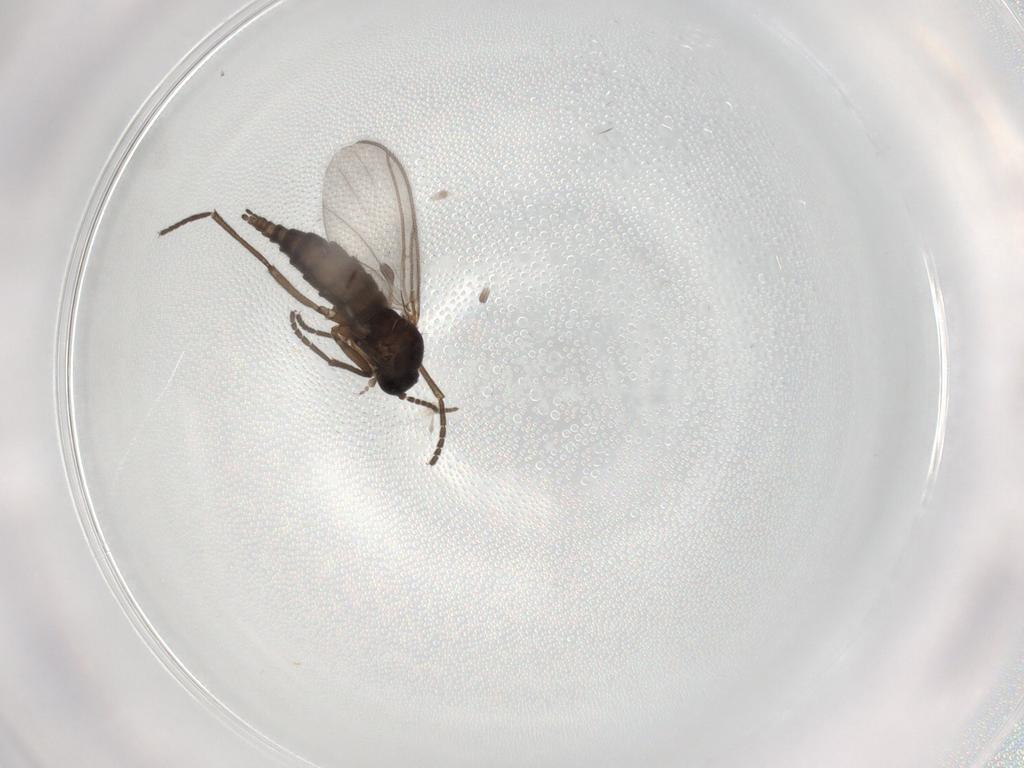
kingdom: Animalia
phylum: Arthropoda
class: Insecta
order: Diptera
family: Sciaridae
